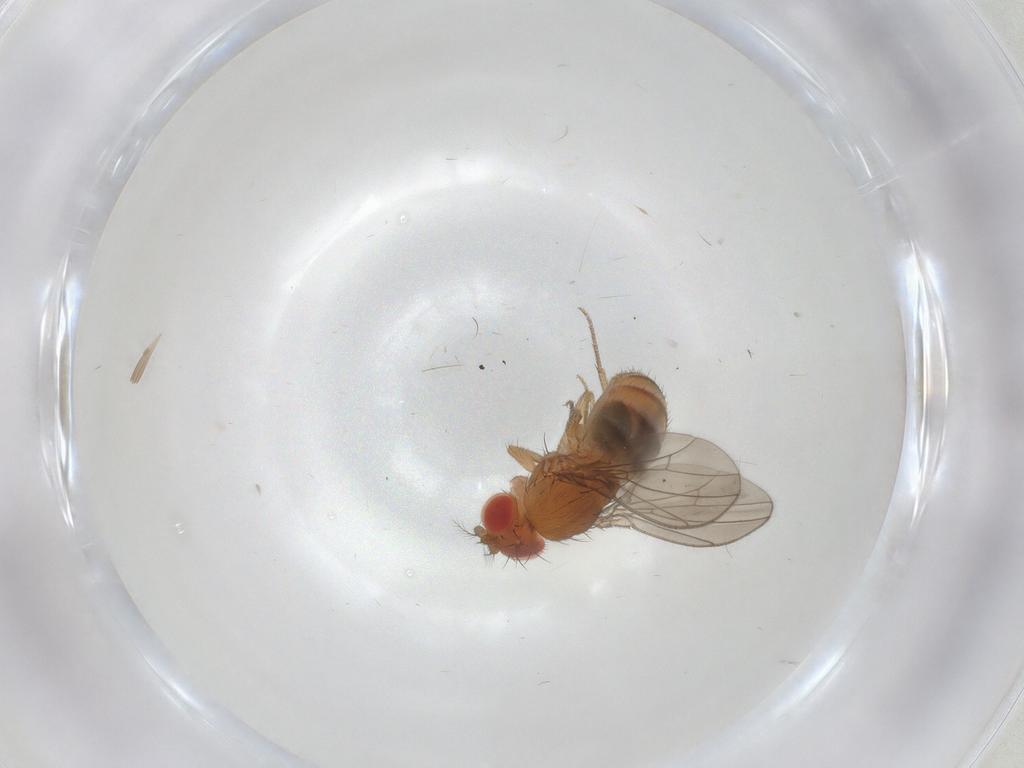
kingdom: Animalia
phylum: Arthropoda
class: Insecta
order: Diptera
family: Drosophilidae
